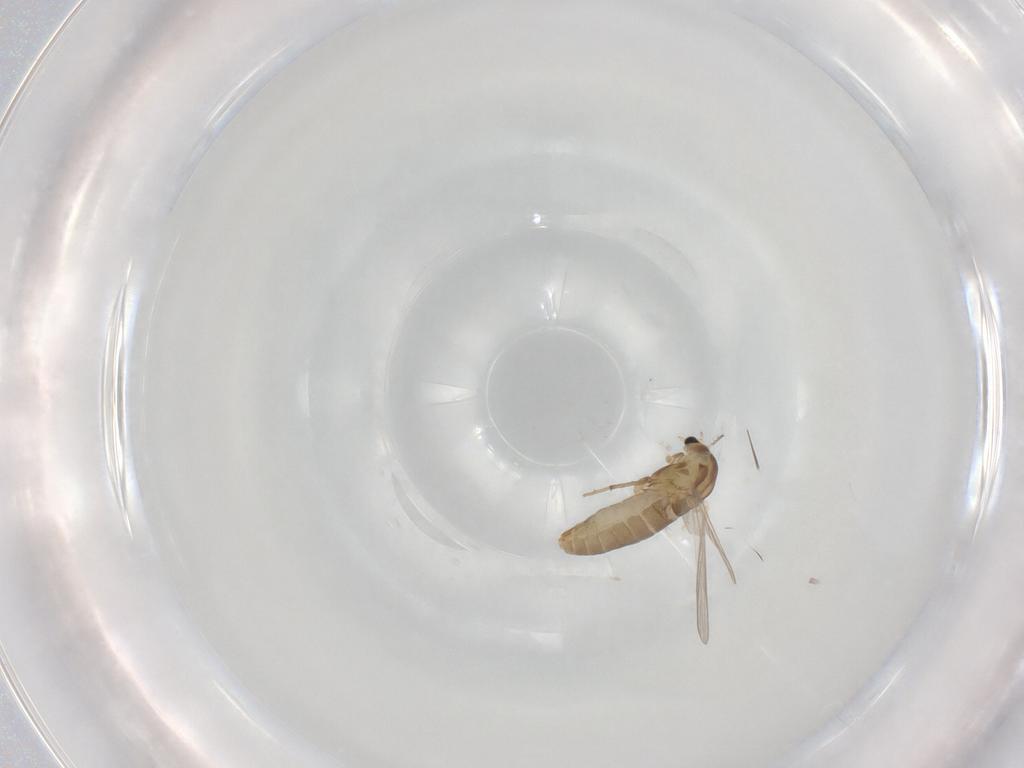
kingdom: Animalia
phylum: Arthropoda
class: Insecta
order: Diptera
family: Chironomidae
